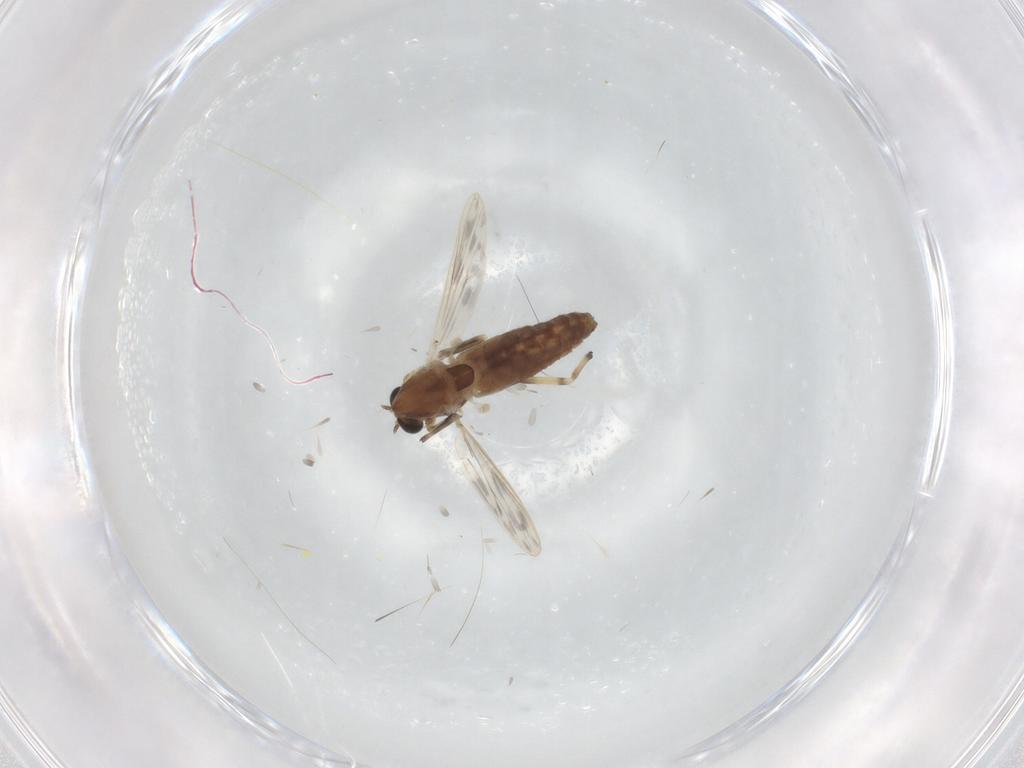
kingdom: Animalia
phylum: Arthropoda
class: Insecta
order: Diptera
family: Chironomidae
